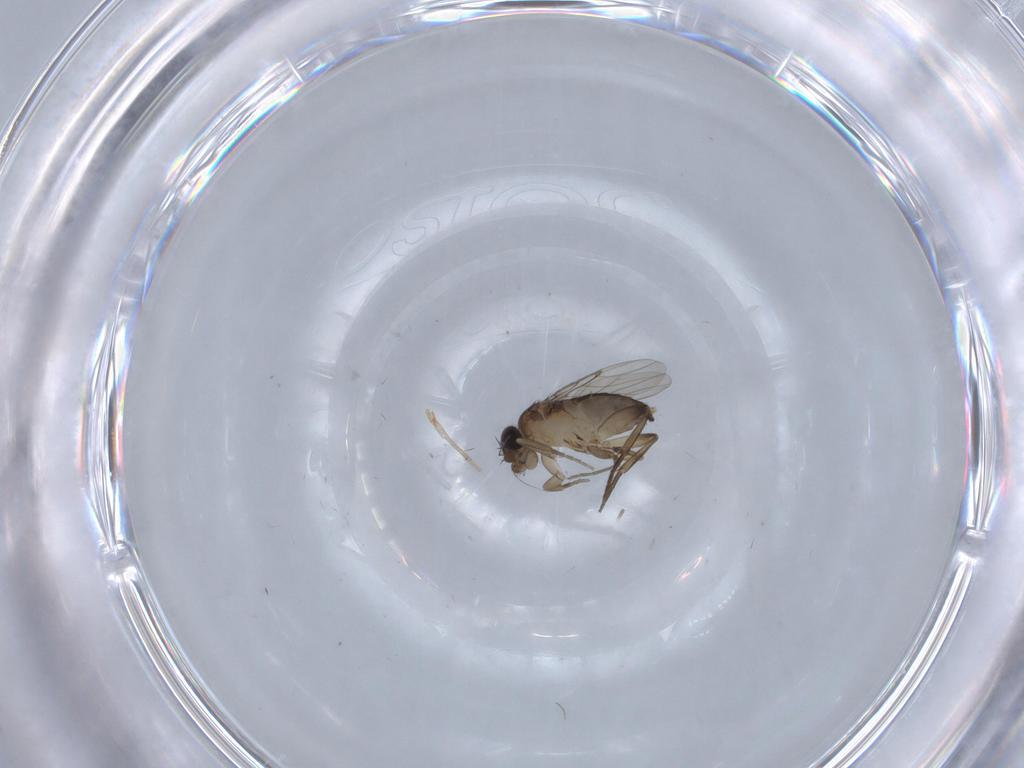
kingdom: Animalia
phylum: Arthropoda
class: Insecta
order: Diptera
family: Phoridae
